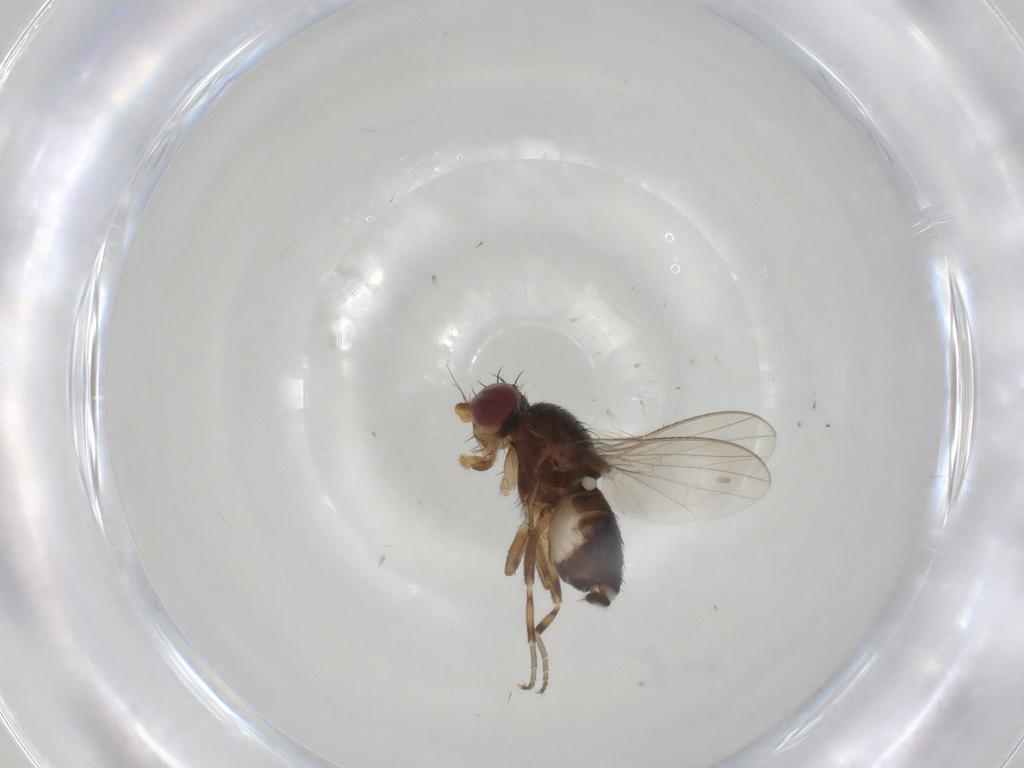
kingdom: Animalia
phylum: Arthropoda
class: Insecta
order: Diptera
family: Heleomyzidae
